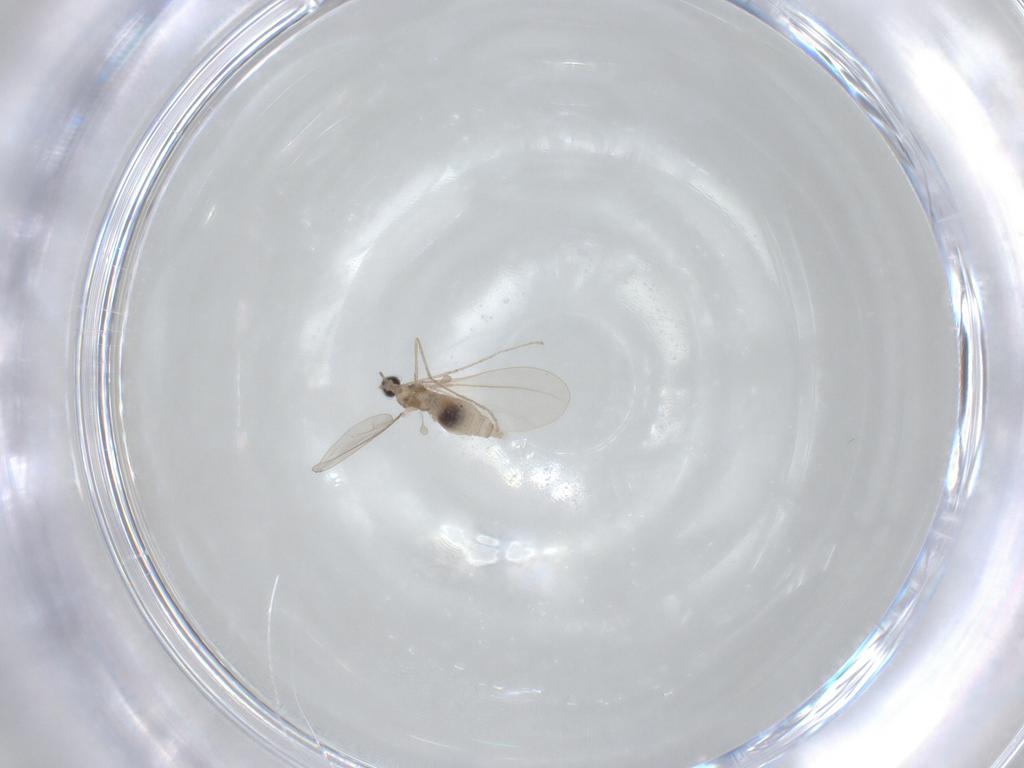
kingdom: Animalia
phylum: Arthropoda
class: Insecta
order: Diptera
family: Cecidomyiidae
